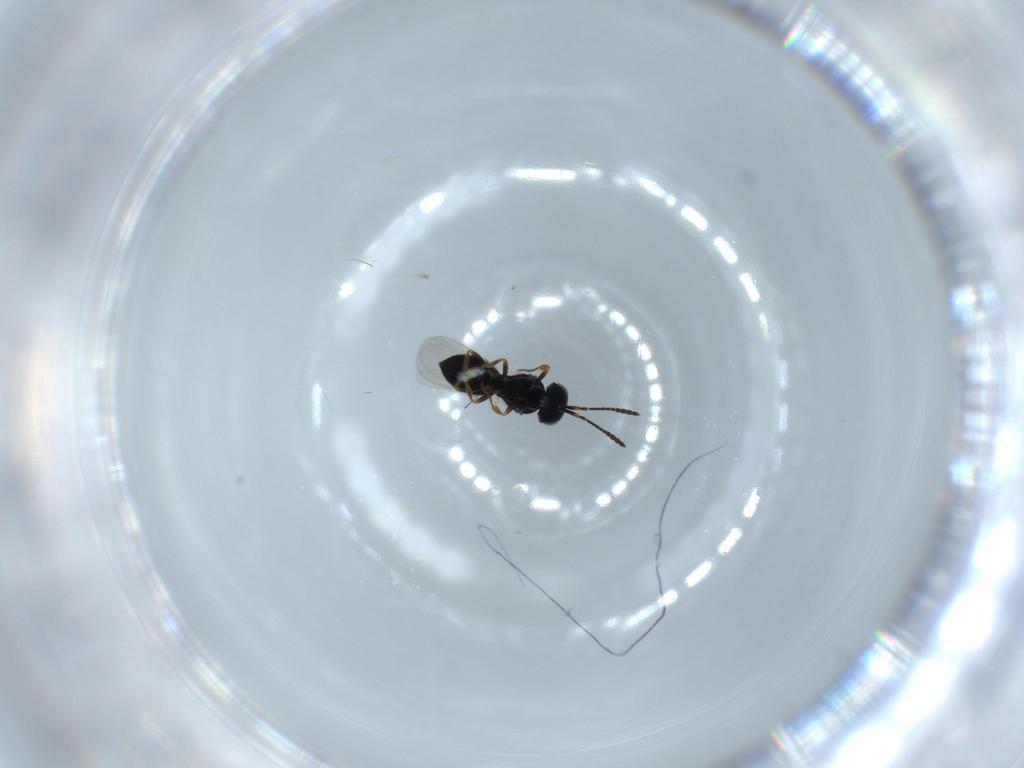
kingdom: Animalia
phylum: Arthropoda
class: Insecta
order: Hymenoptera
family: Scelionidae
